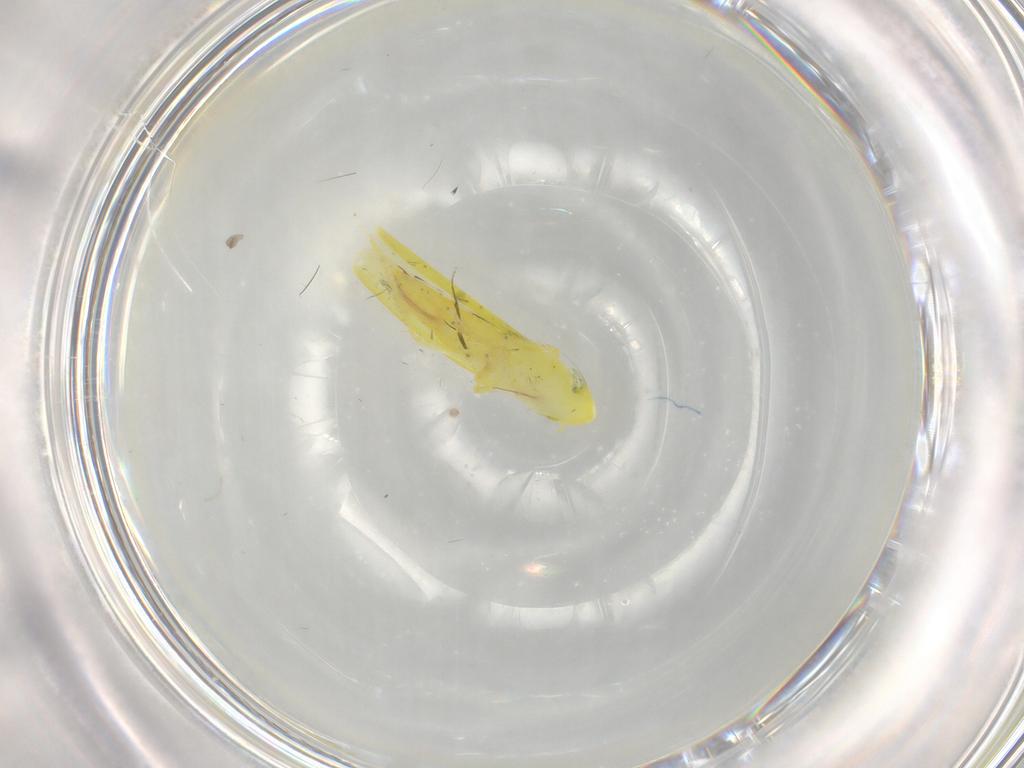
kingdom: Animalia
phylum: Arthropoda
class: Insecta
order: Hemiptera
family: Cicadellidae
